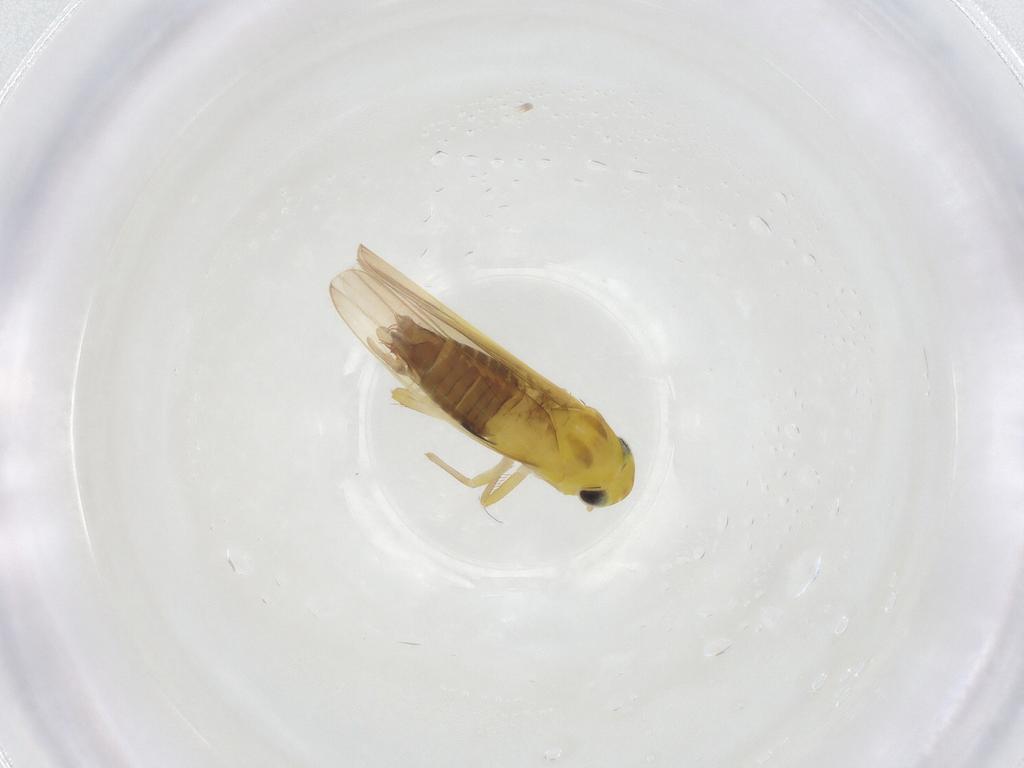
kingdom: Animalia
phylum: Arthropoda
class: Insecta
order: Hemiptera
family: Cicadellidae
